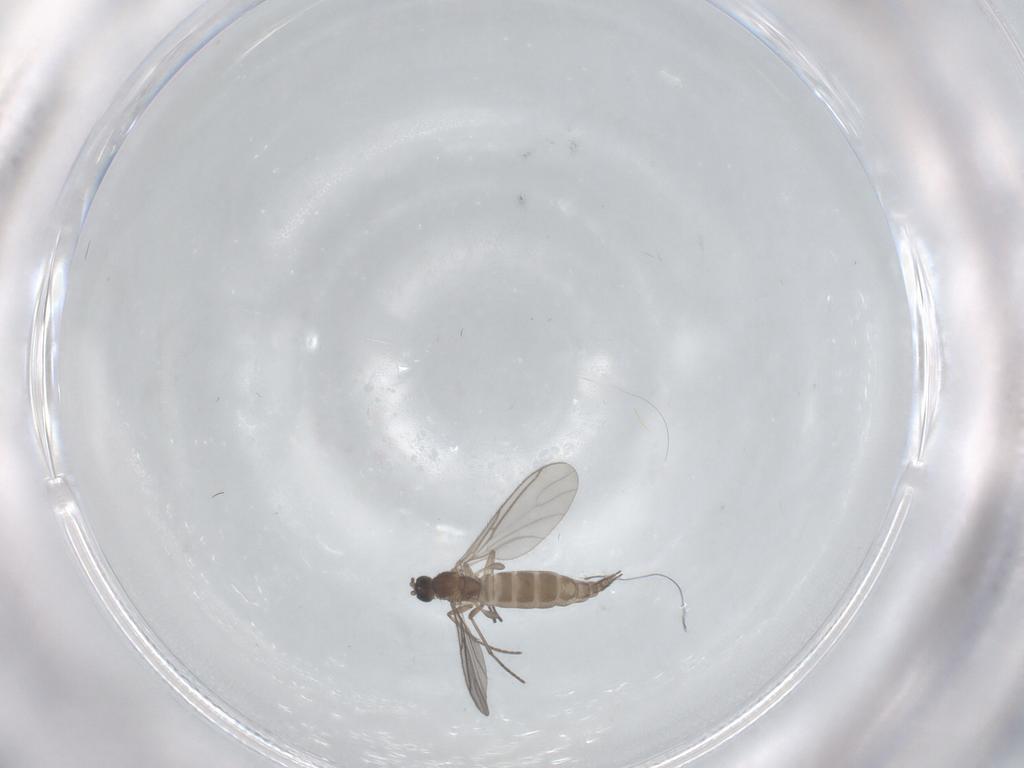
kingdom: Animalia
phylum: Arthropoda
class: Insecta
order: Diptera
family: Sciaridae
